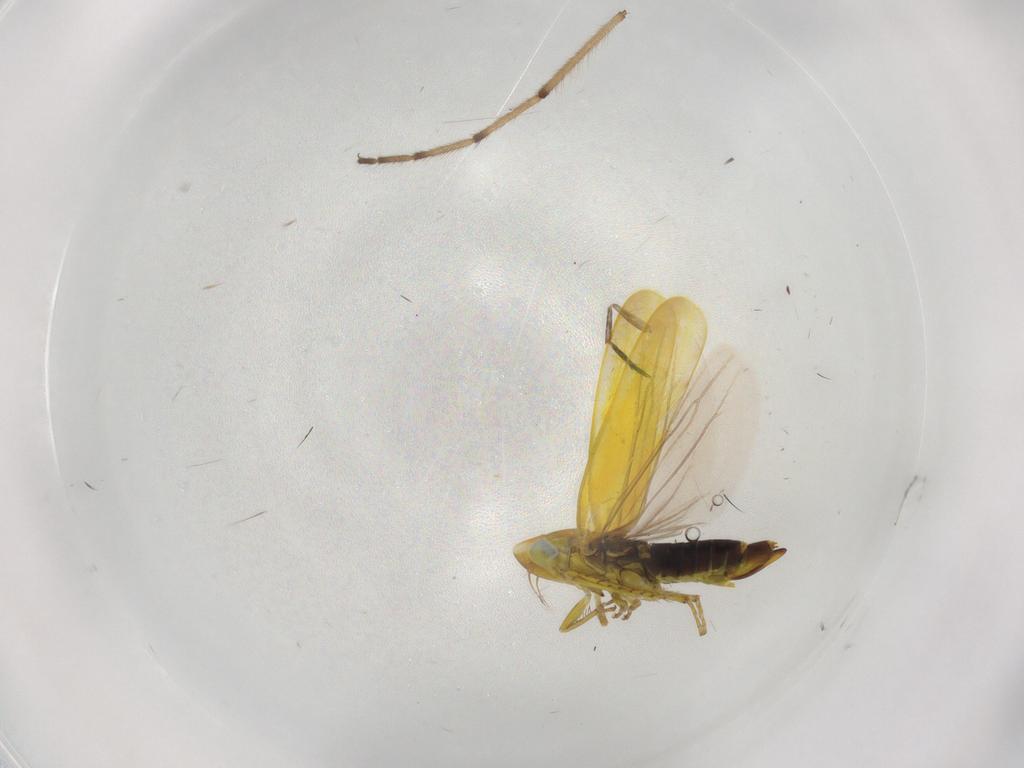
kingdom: Animalia
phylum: Arthropoda
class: Insecta
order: Hemiptera
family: Cicadellidae
